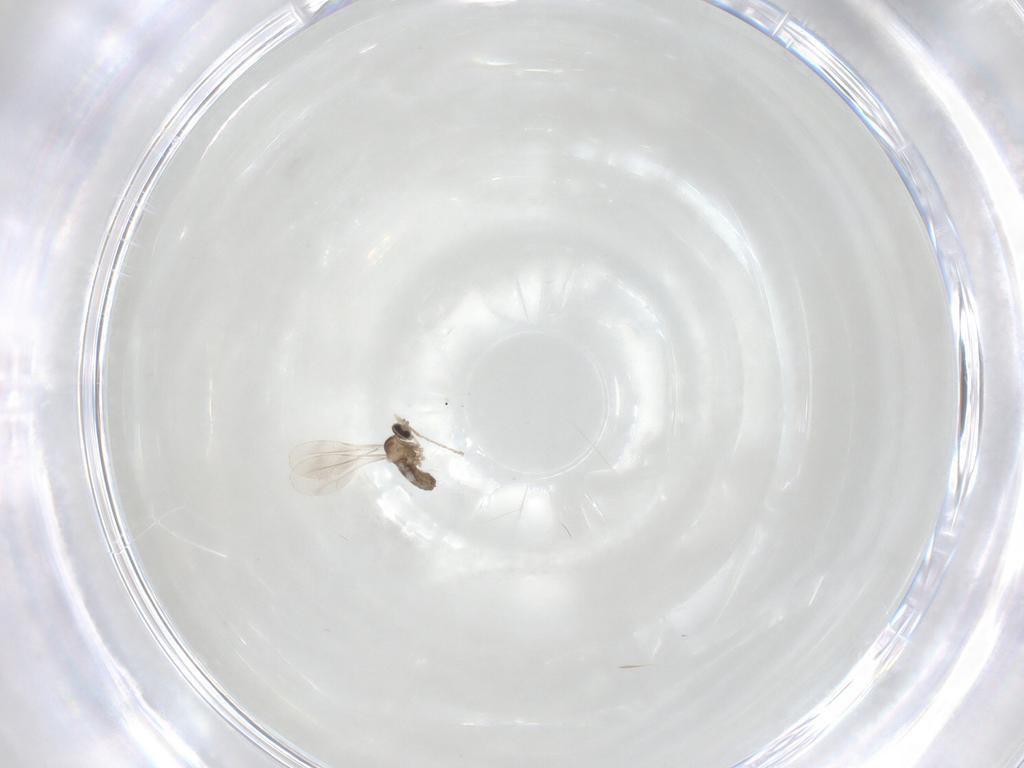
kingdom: Animalia
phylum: Arthropoda
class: Insecta
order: Diptera
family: Cecidomyiidae
